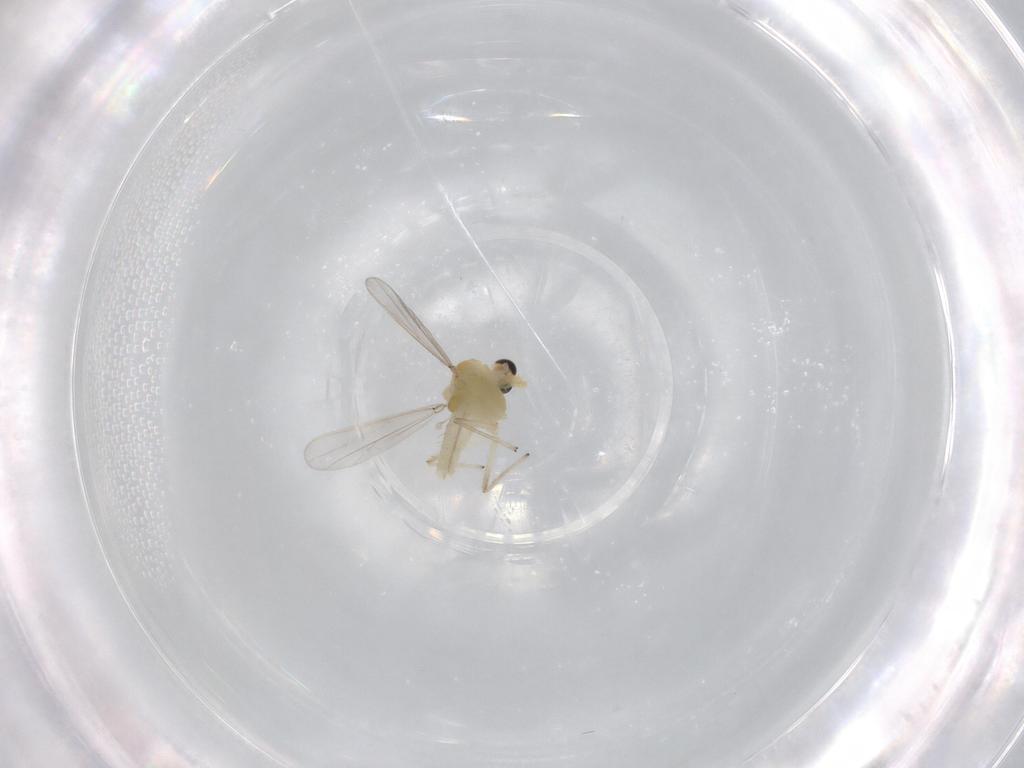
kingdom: Animalia
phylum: Arthropoda
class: Insecta
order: Diptera
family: Chironomidae
